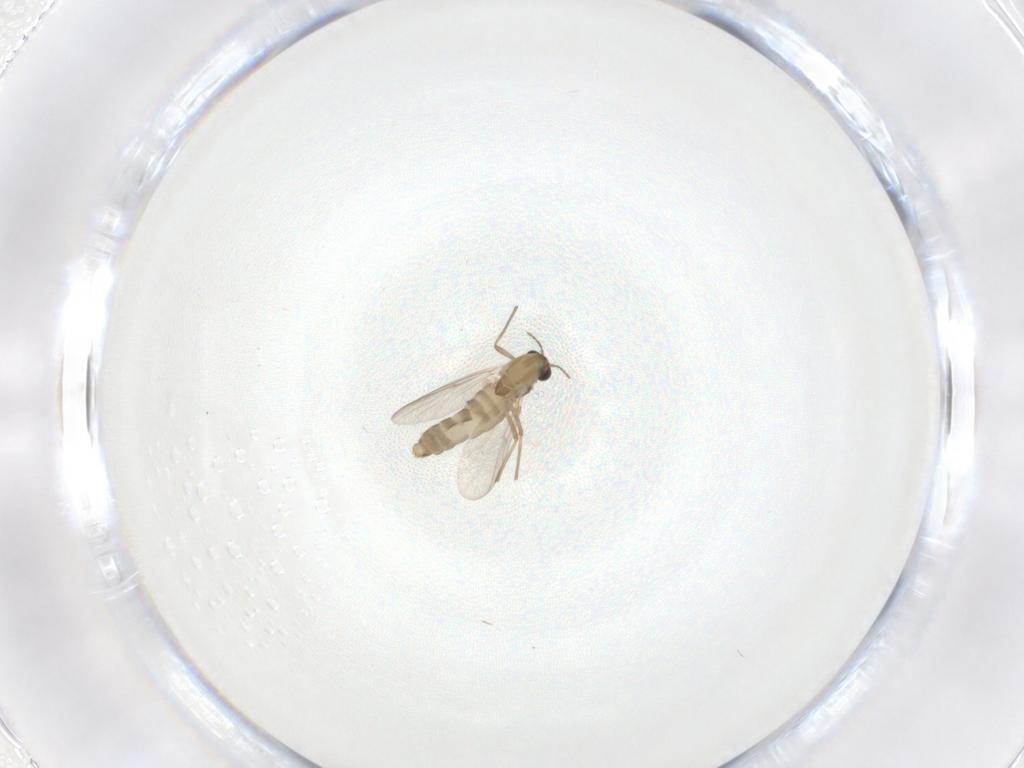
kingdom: Animalia
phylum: Arthropoda
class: Insecta
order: Diptera
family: Chironomidae
